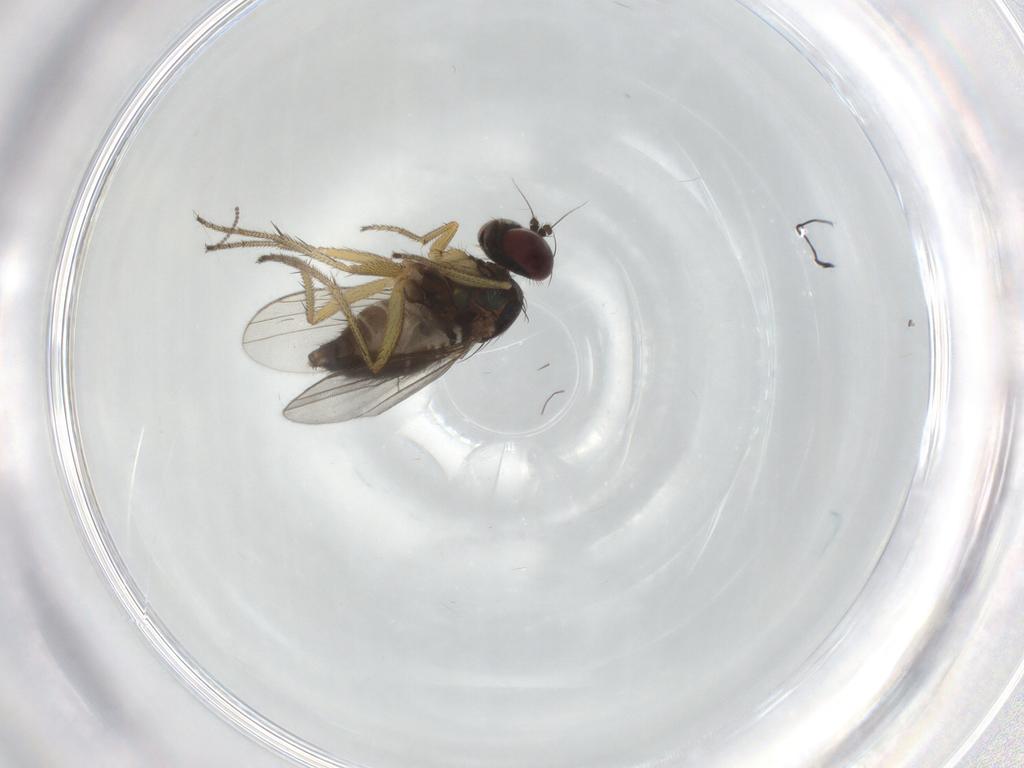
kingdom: Animalia
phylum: Arthropoda
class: Insecta
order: Diptera
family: Dolichopodidae
